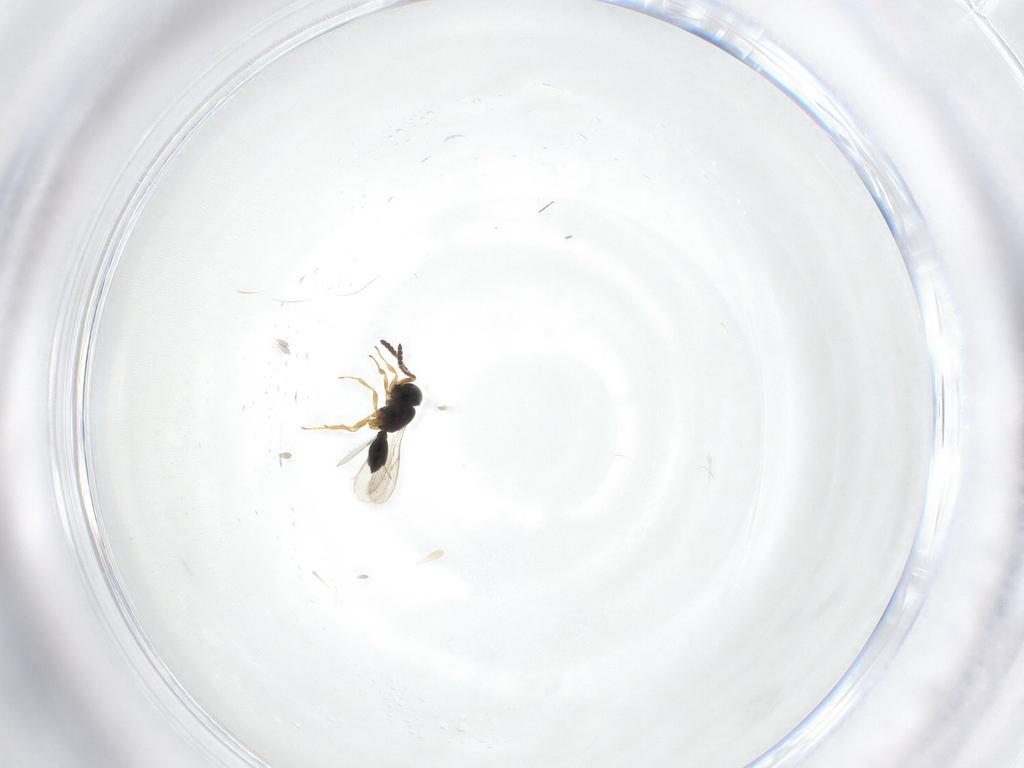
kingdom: Animalia
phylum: Arthropoda
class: Insecta
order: Hymenoptera
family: Scelionidae
